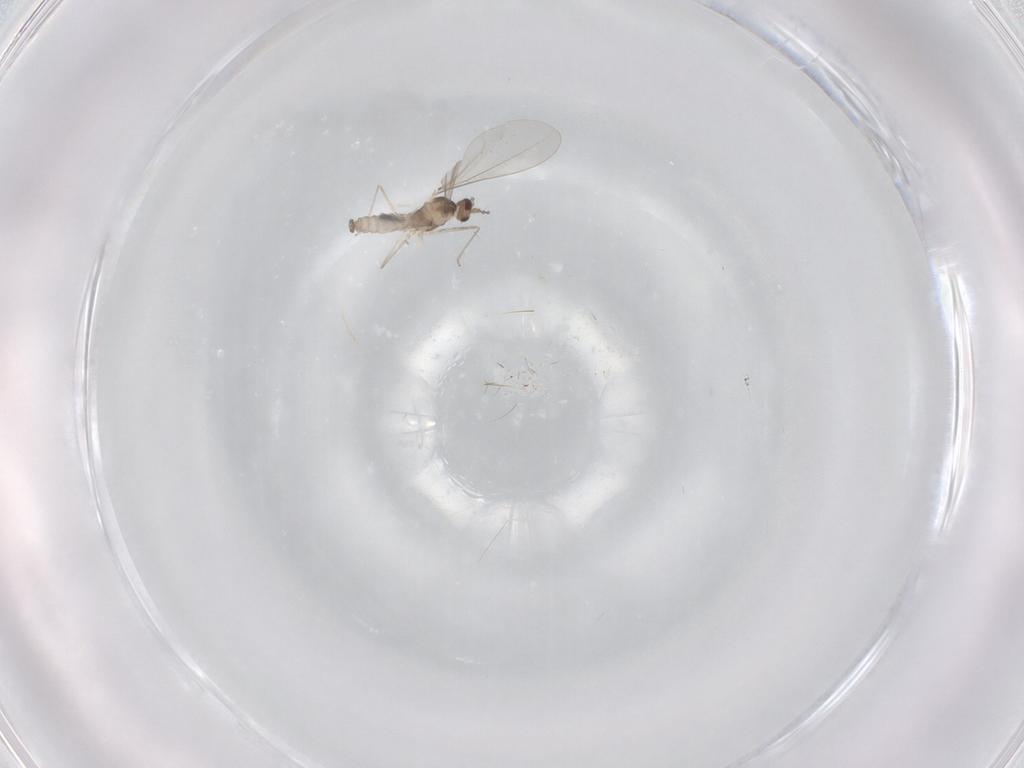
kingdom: Animalia
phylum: Arthropoda
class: Insecta
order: Diptera
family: Cecidomyiidae
